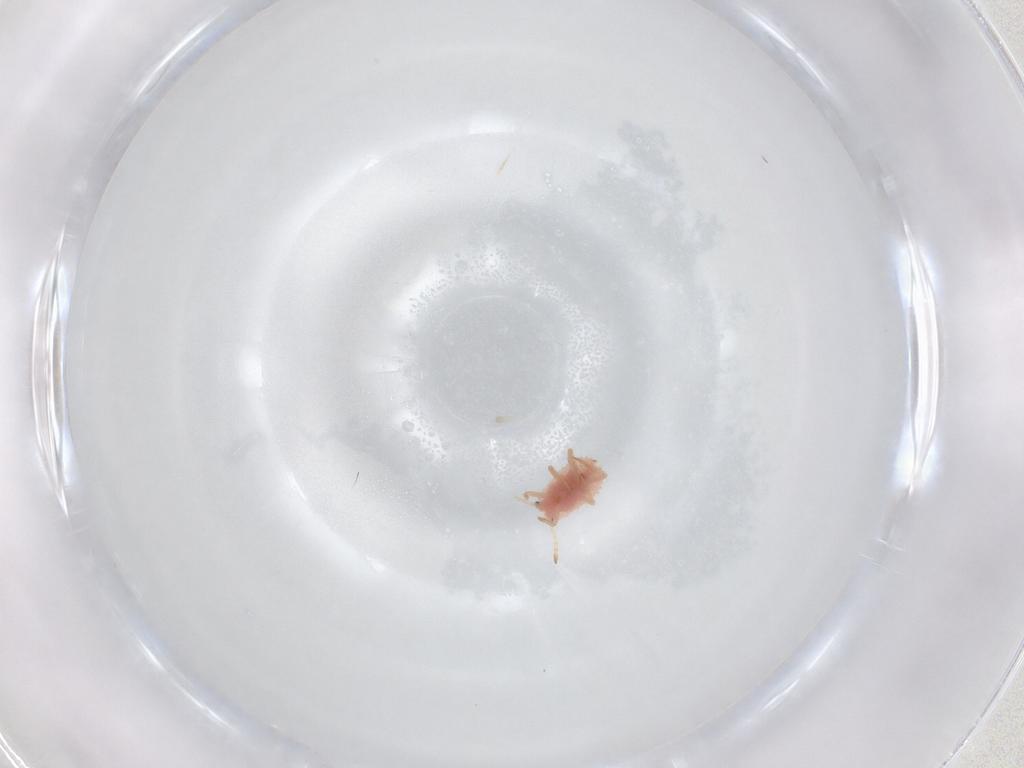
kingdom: Animalia
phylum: Arthropoda
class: Insecta
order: Hemiptera
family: Coccoidea_incertae_sedis
